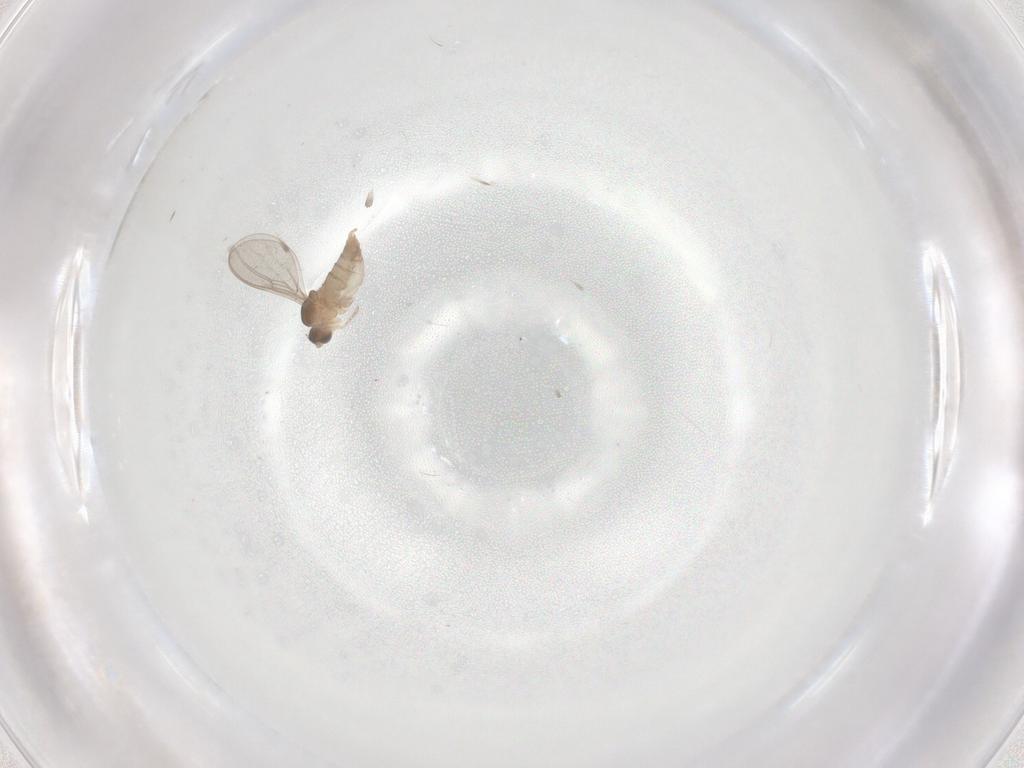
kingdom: Animalia
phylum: Arthropoda
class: Insecta
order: Diptera
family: Cecidomyiidae
